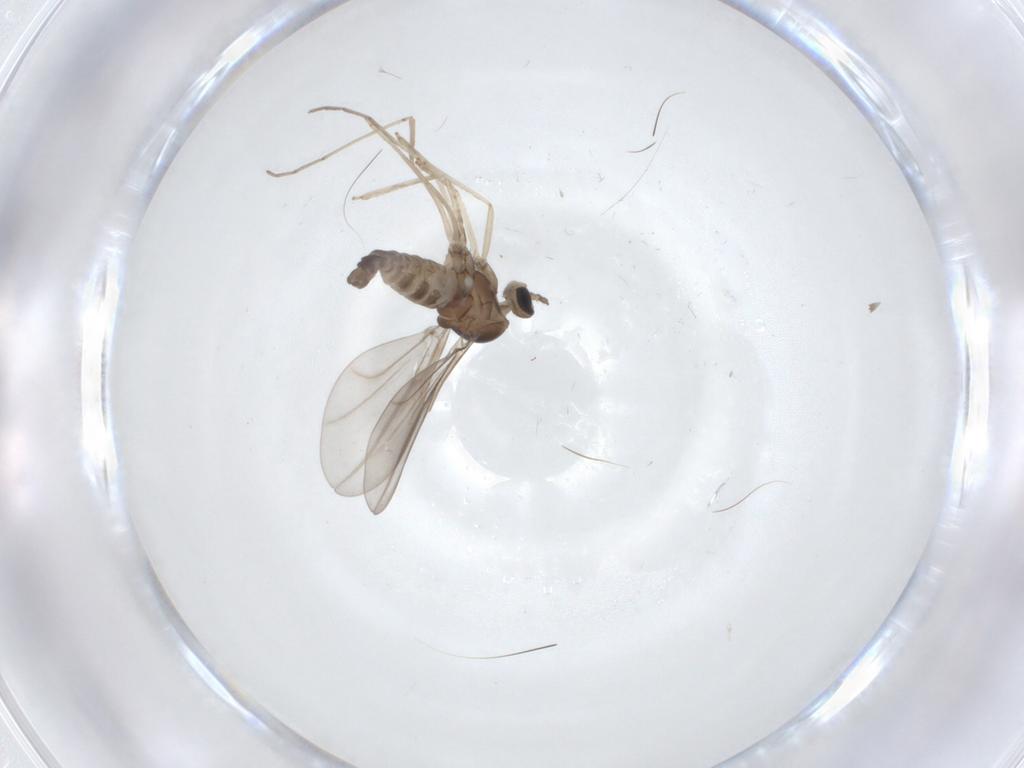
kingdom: Animalia
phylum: Arthropoda
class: Insecta
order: Diptera
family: Cecidomyiidae
